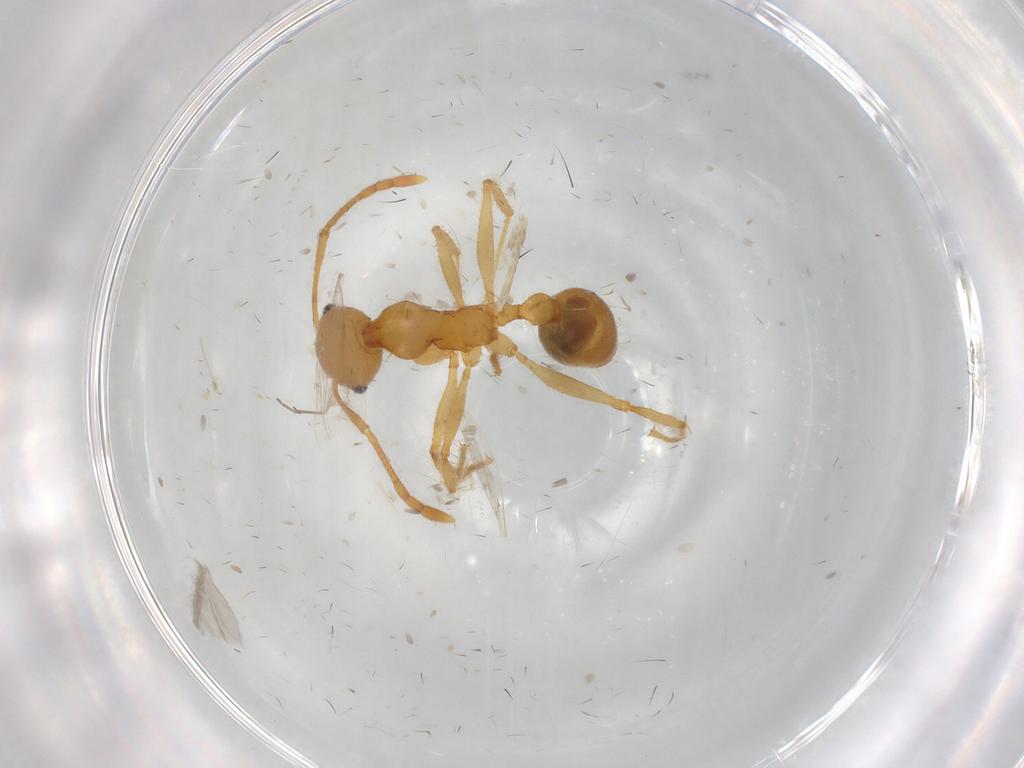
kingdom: Animalia
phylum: Arthropoda
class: Insecta
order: Hymenoptera
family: Formicidae
